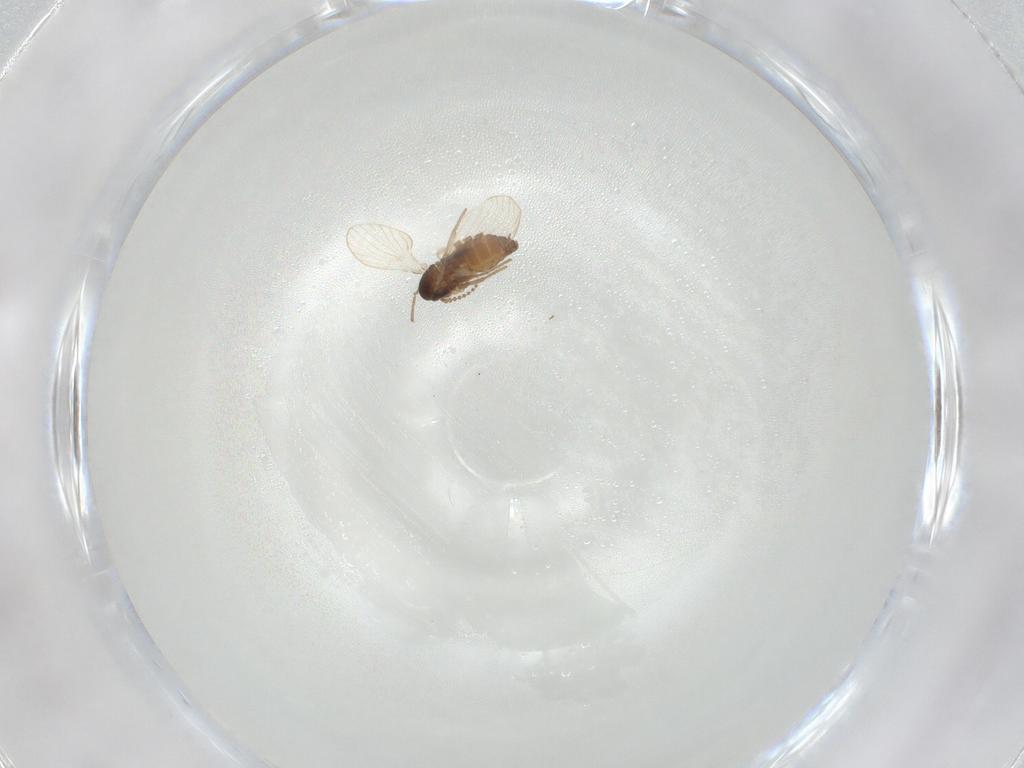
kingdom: Animalia
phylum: Arthropoda
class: Insecta
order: Diptera
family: Psychodidae
